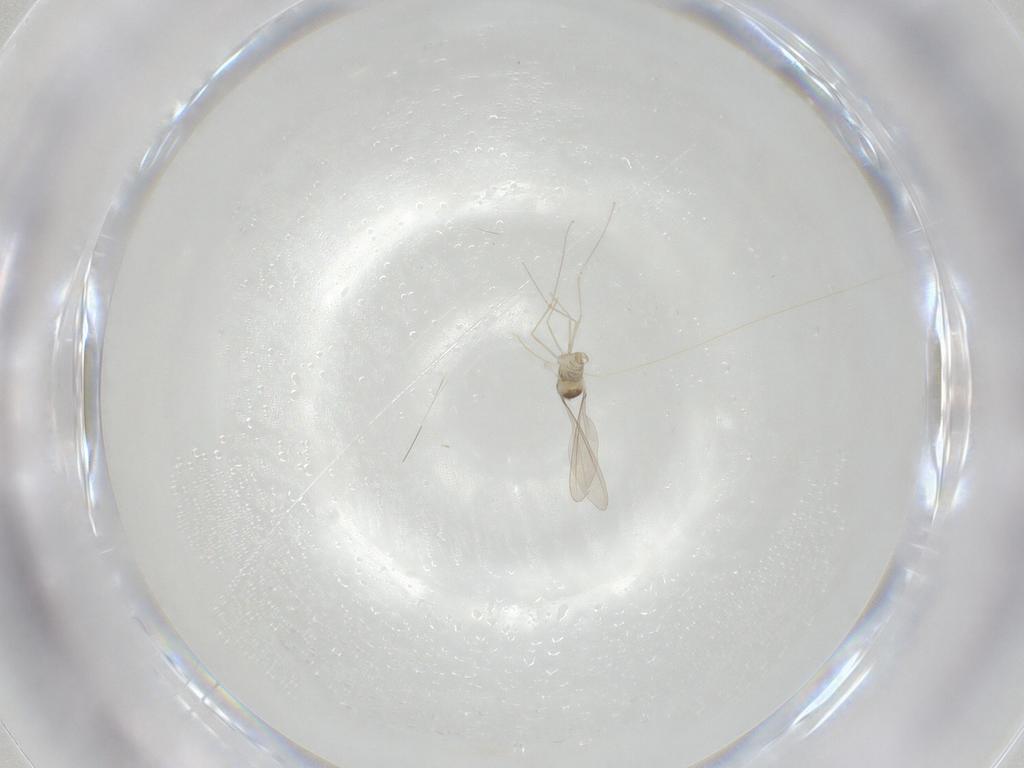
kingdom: Animalia
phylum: Arthropoda
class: Insecta
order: Diptera
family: Cecidomyiidae
